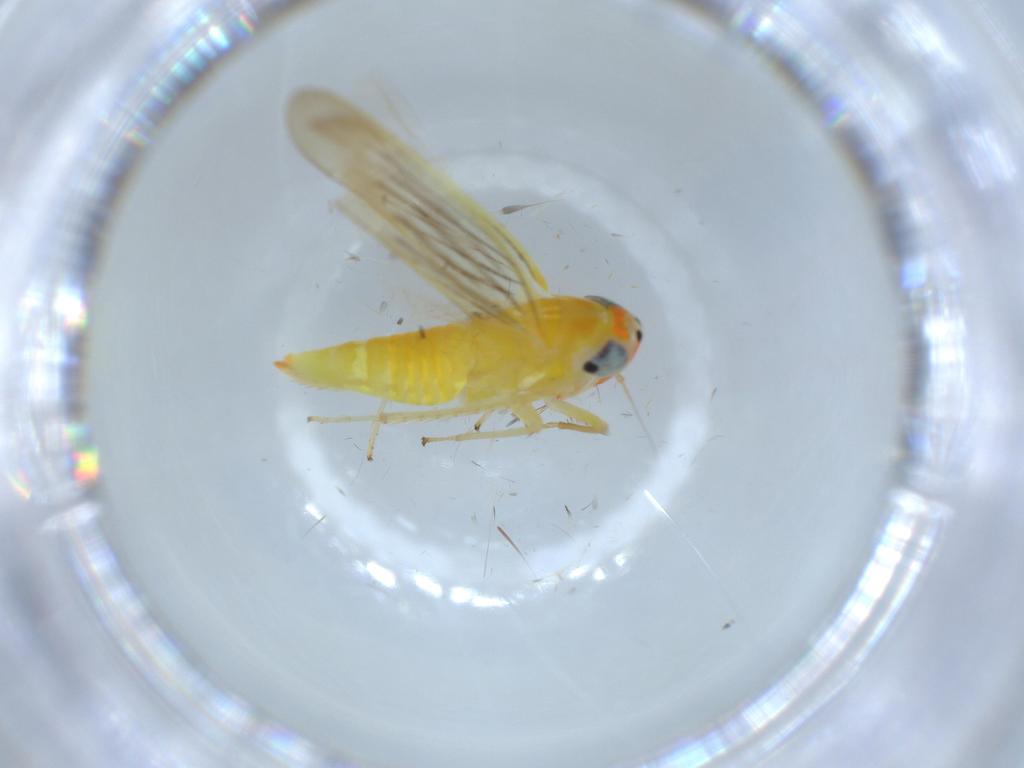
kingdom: Animalia
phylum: Arthropoda
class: Insecta
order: Hemiptera
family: Cicadellidae
